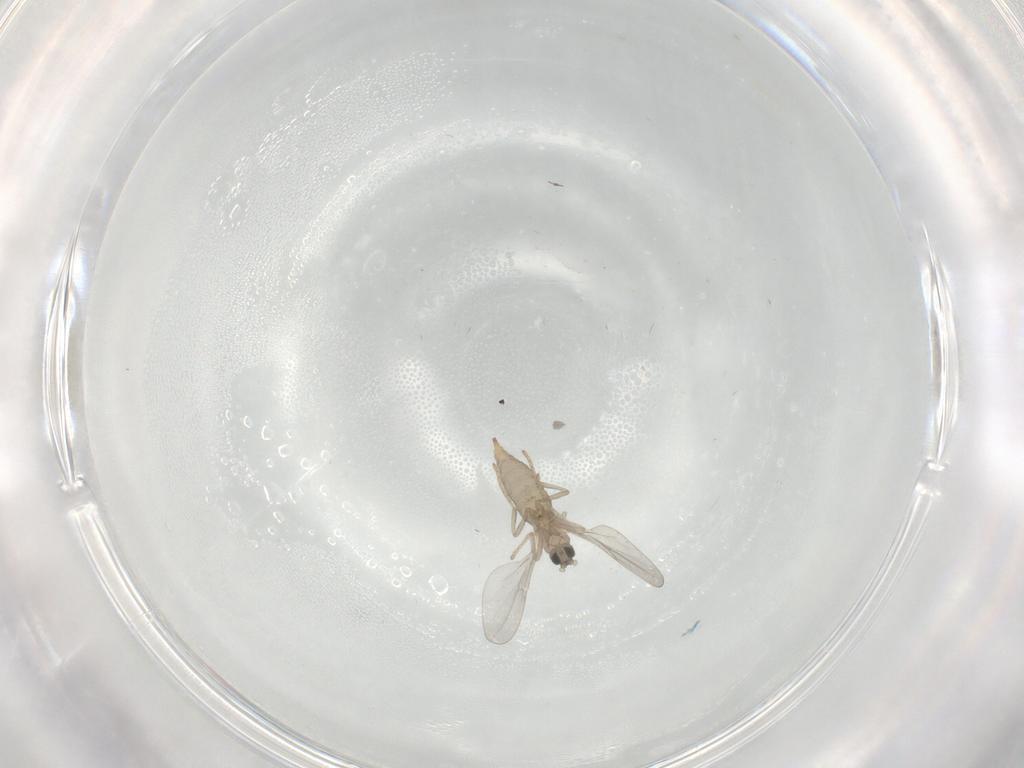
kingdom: Animalia
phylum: Arthropoda
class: Insecta
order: Diptera
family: Cecidomyiidae
